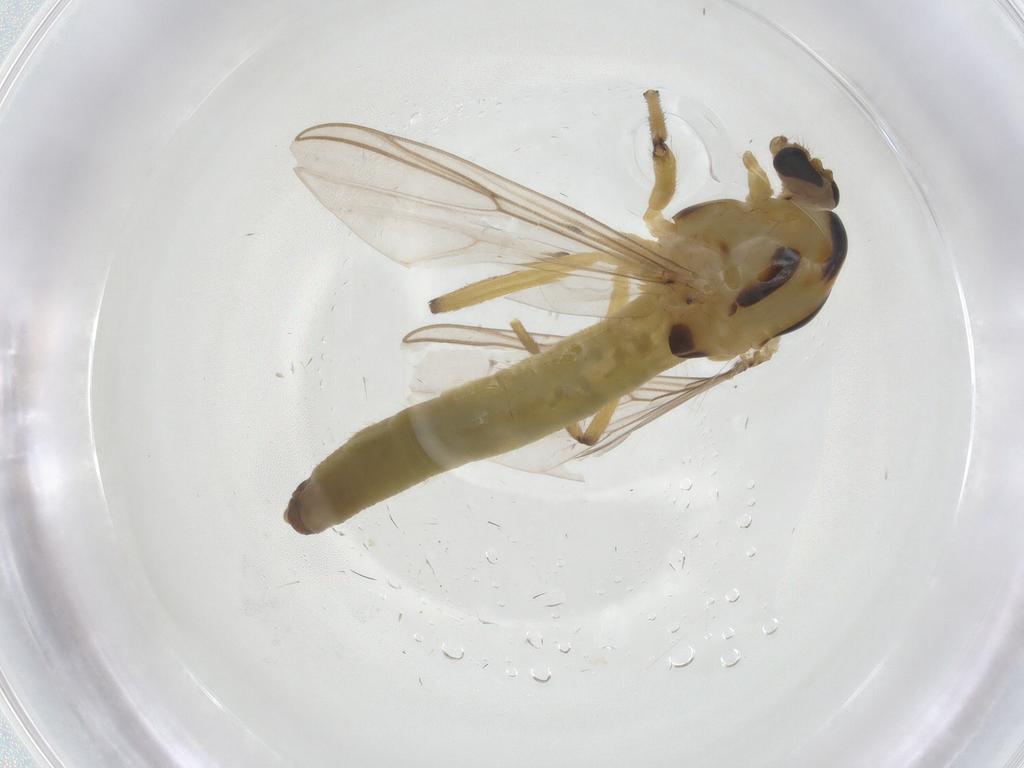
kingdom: Animalia
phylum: Arthropoda
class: Insecta
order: Diptera
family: Chironomidae
